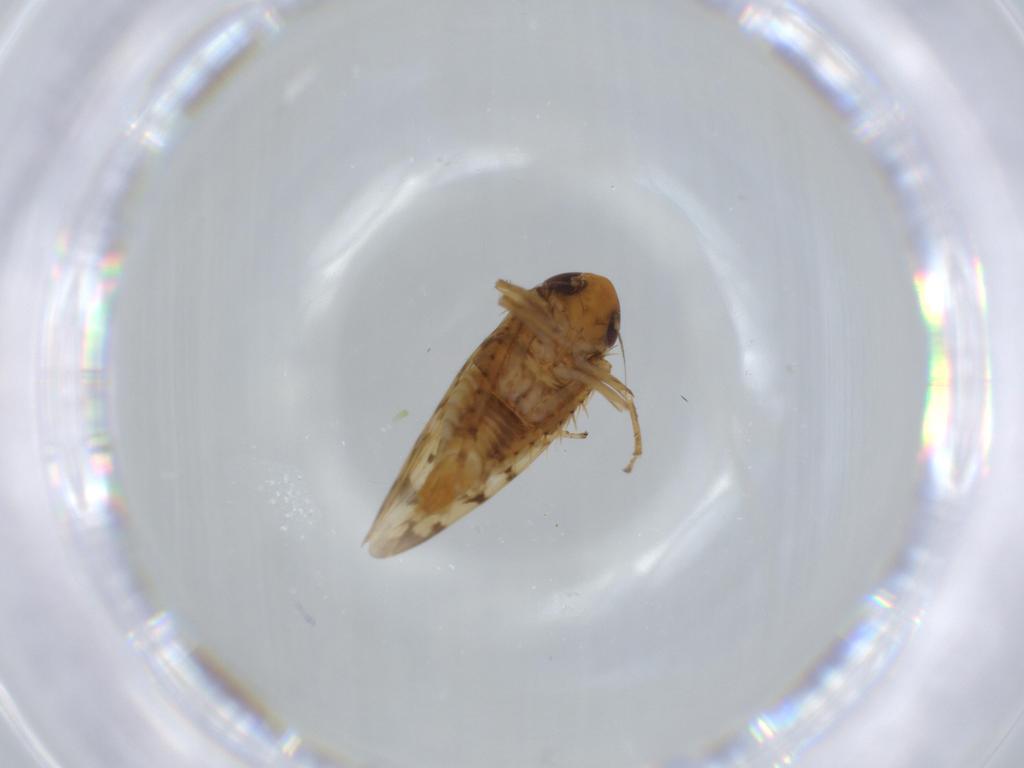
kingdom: Animalia
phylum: Arthropoda
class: Insecta
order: Hemiptera
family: Cicadellidae
